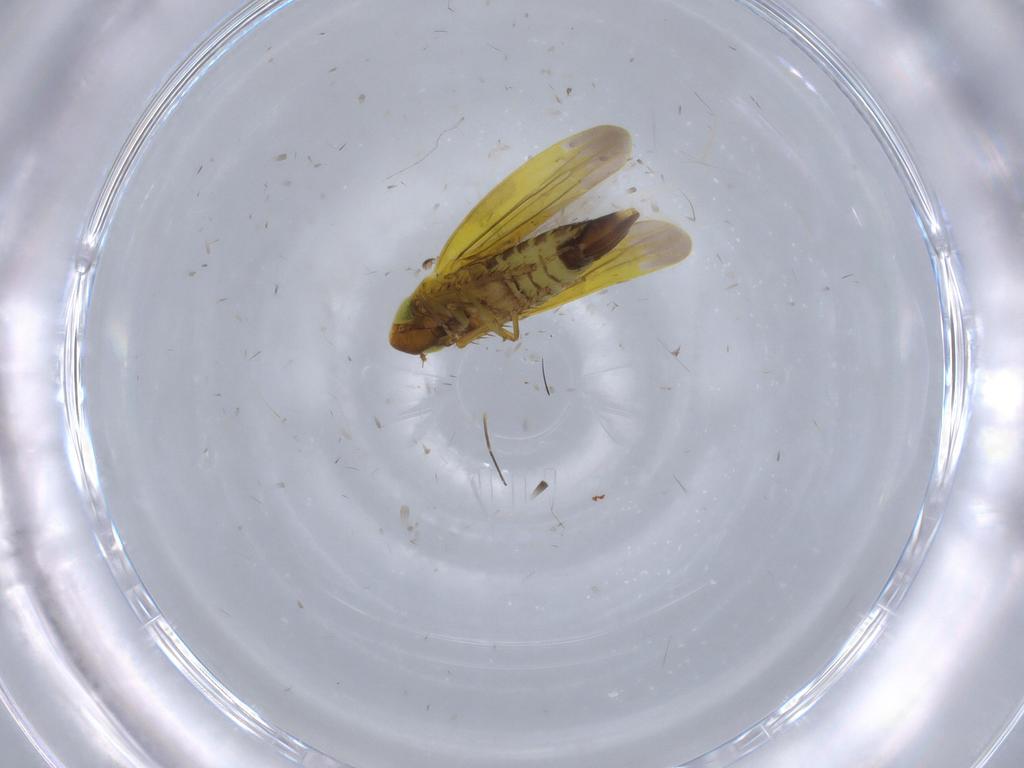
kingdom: Animalia
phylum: Arthropoda
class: Insecta
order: Hemiptera
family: Cicadellidae
